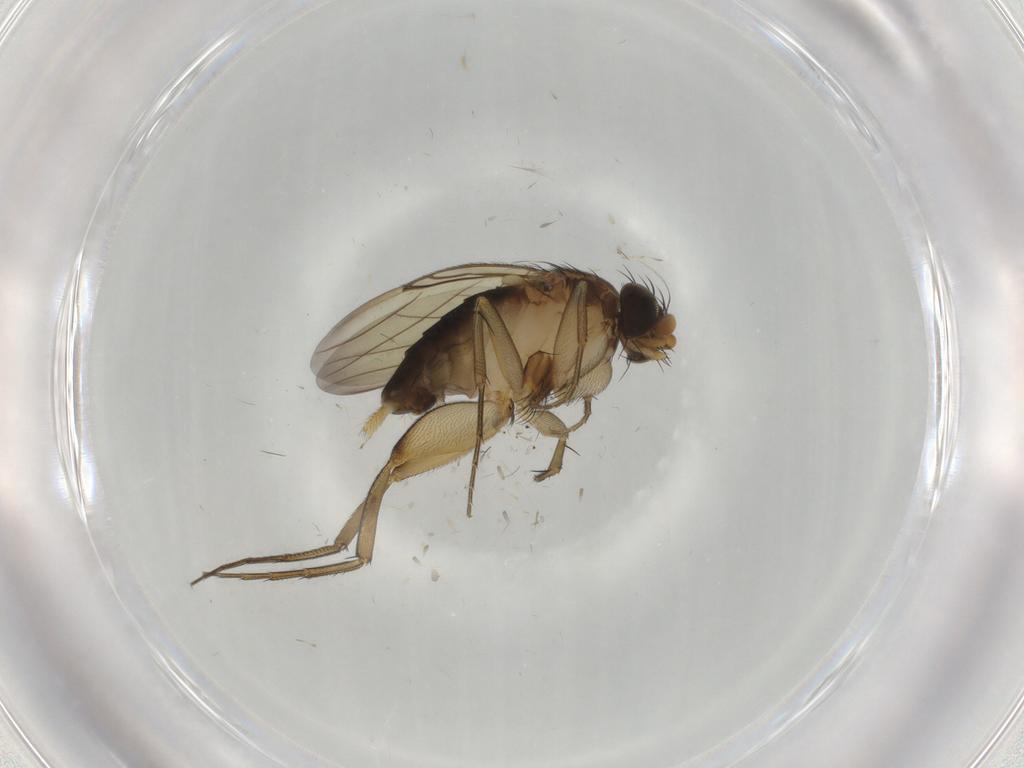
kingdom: Animalia
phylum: Arthropoda
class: Insecta
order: Diptera
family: Phoridae
